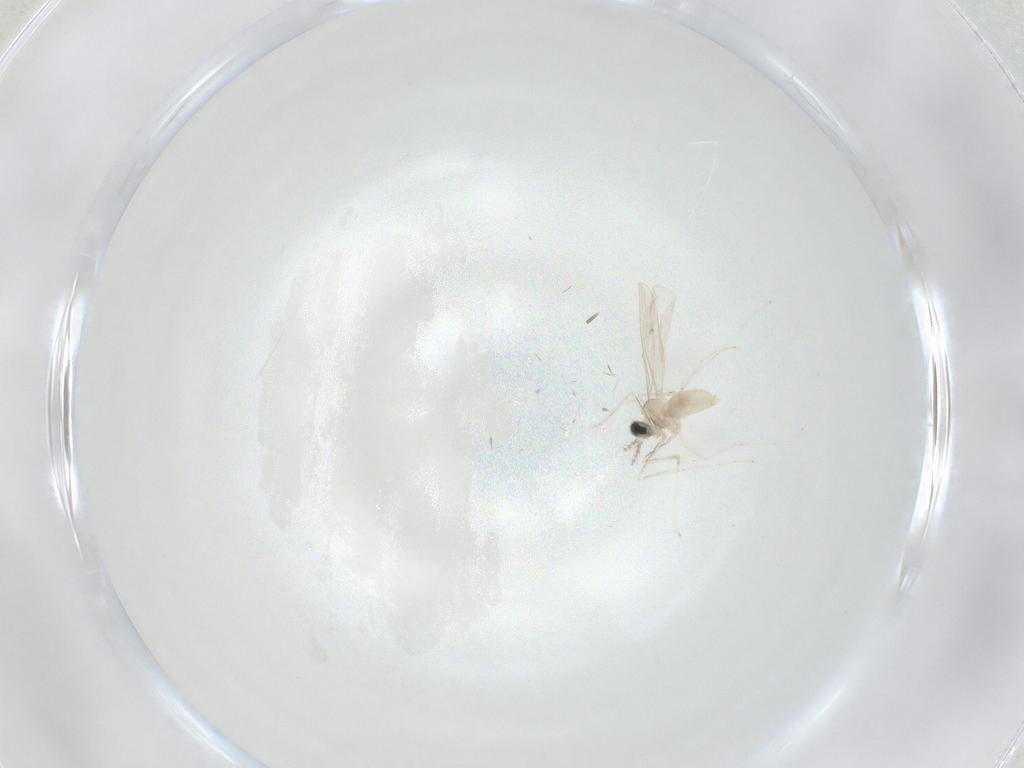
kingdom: Animalia
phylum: Arthropoda
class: Insecta
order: Diptera
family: Cecidomyiidae
